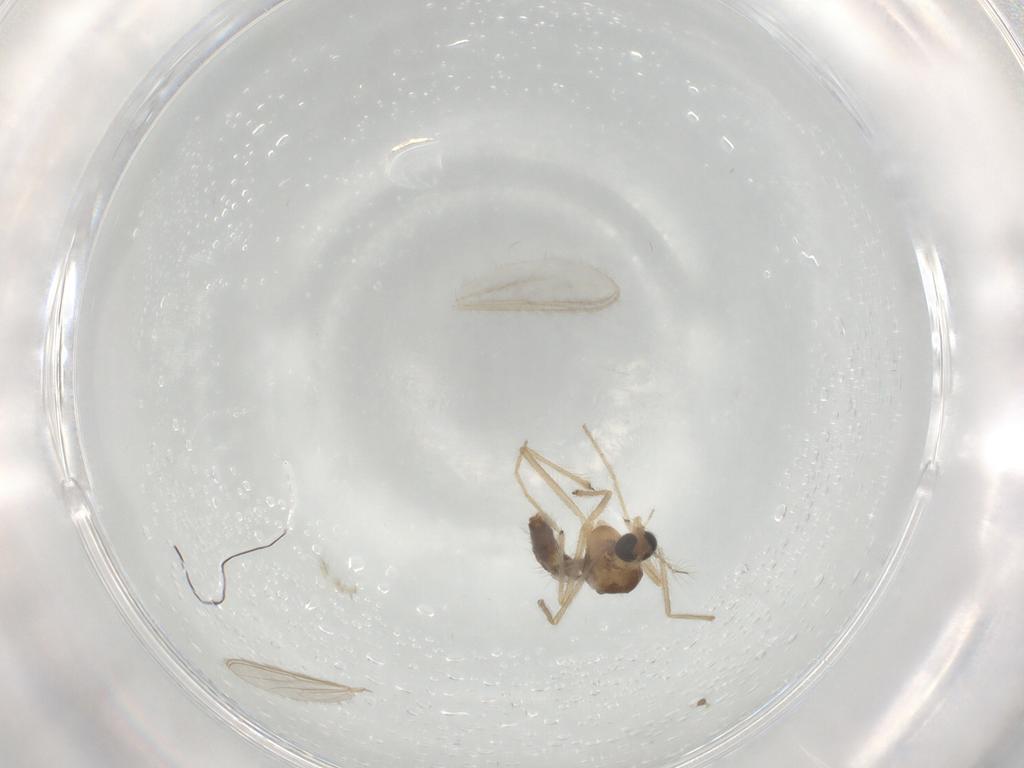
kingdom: Animalia
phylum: Arthropoda
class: Insecta
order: Diptera
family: Chironomidae
